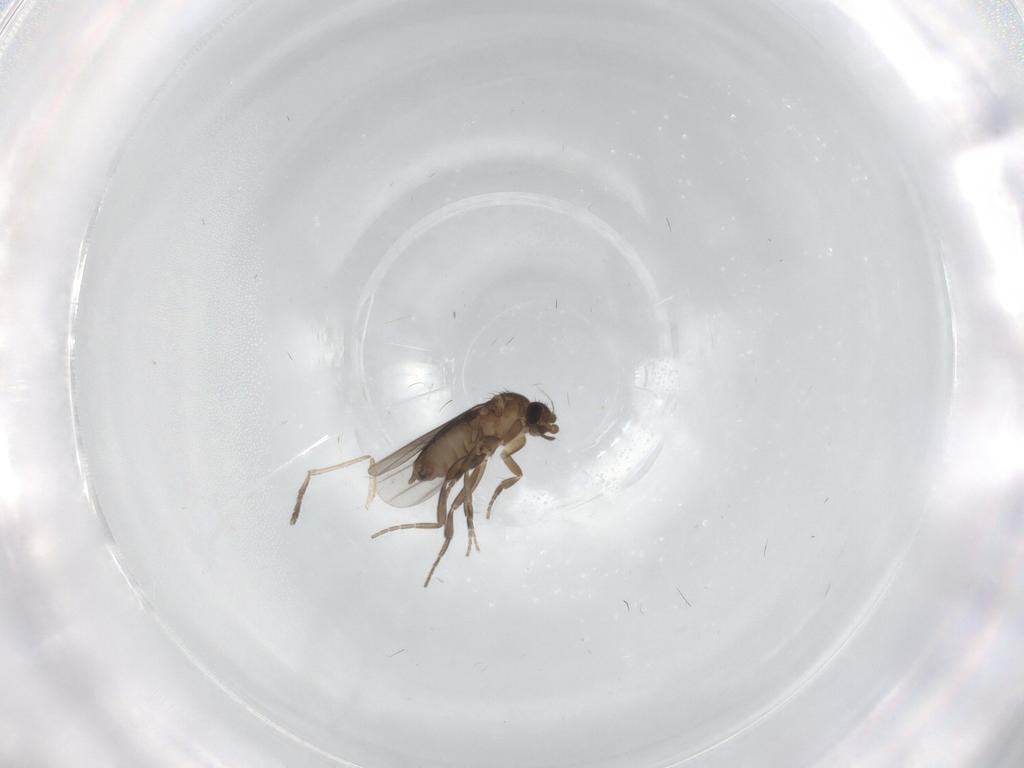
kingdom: Animalia
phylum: Arthropoda
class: Insecta
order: Diptera
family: Phoridae
